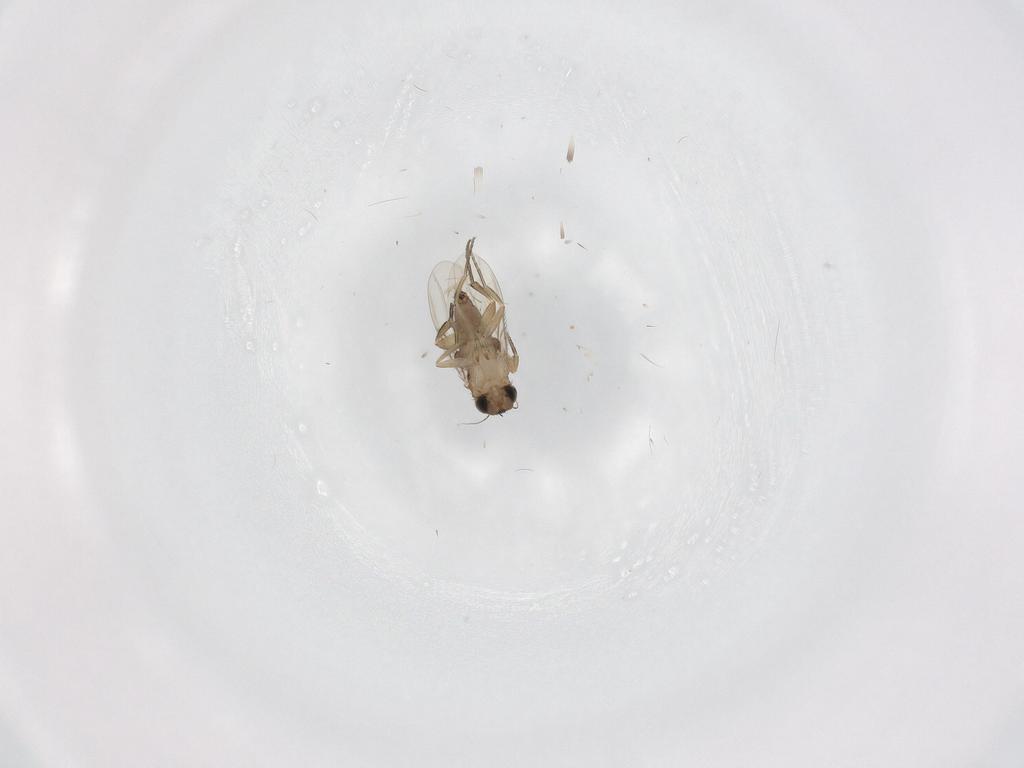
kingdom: Animalia
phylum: Arthropoda
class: Insecta
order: Diptera
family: Phoridae
